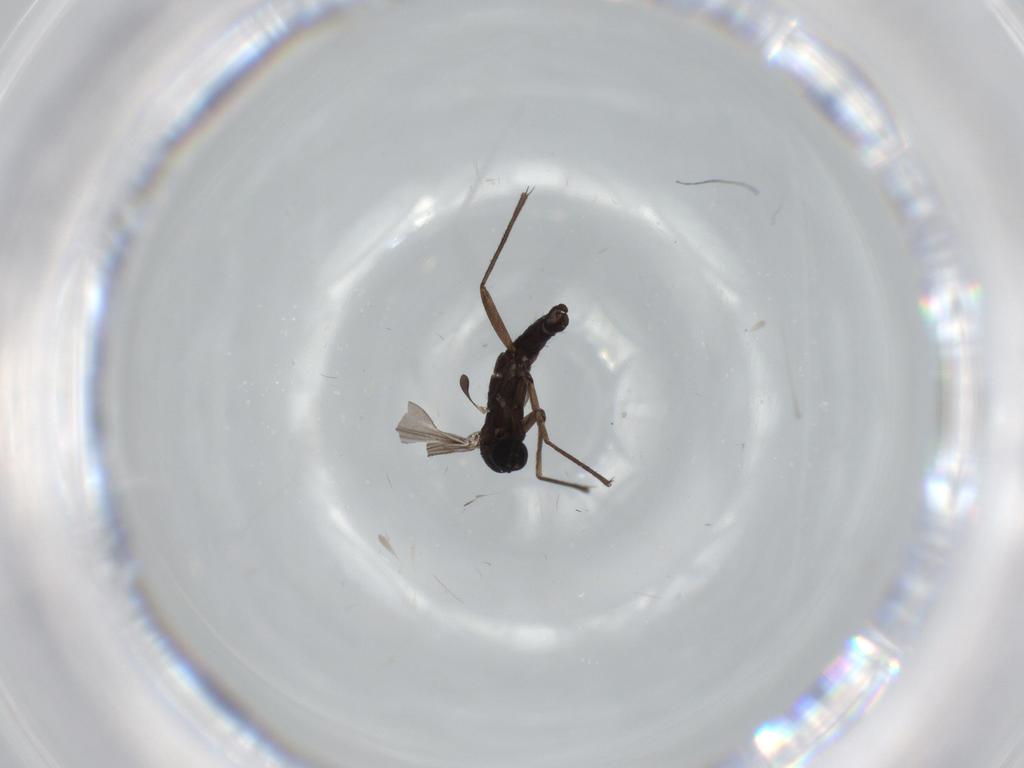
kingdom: Animalia
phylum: Arthropoda
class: Insecta
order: Diptera
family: Sciaridae
